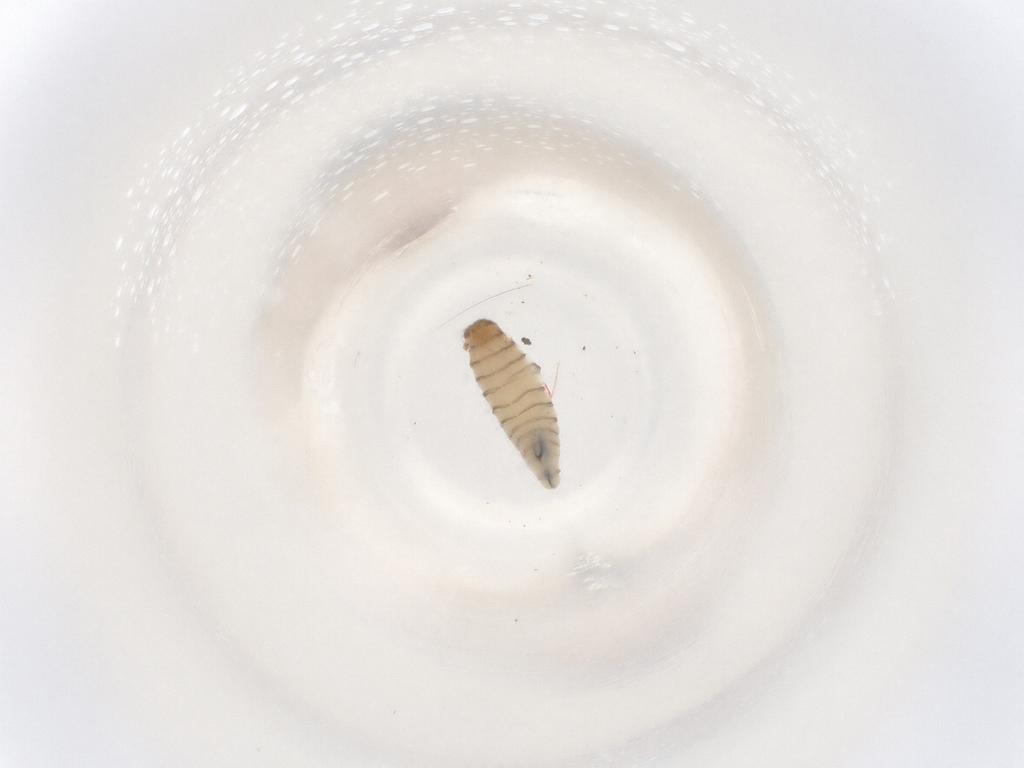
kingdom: Animalia
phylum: Arthropoda
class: Insecta
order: Diptera
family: Sarcophagidae
